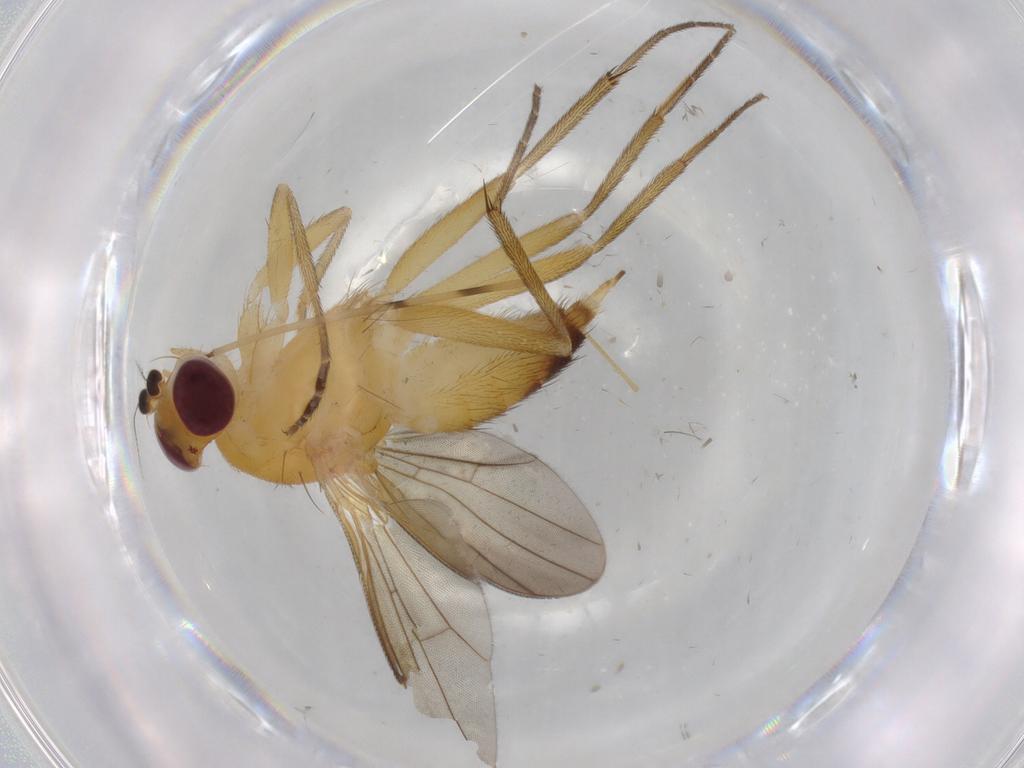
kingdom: Animalia
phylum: Arthropoda
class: Insecta
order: Diptera
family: Clusiidae
